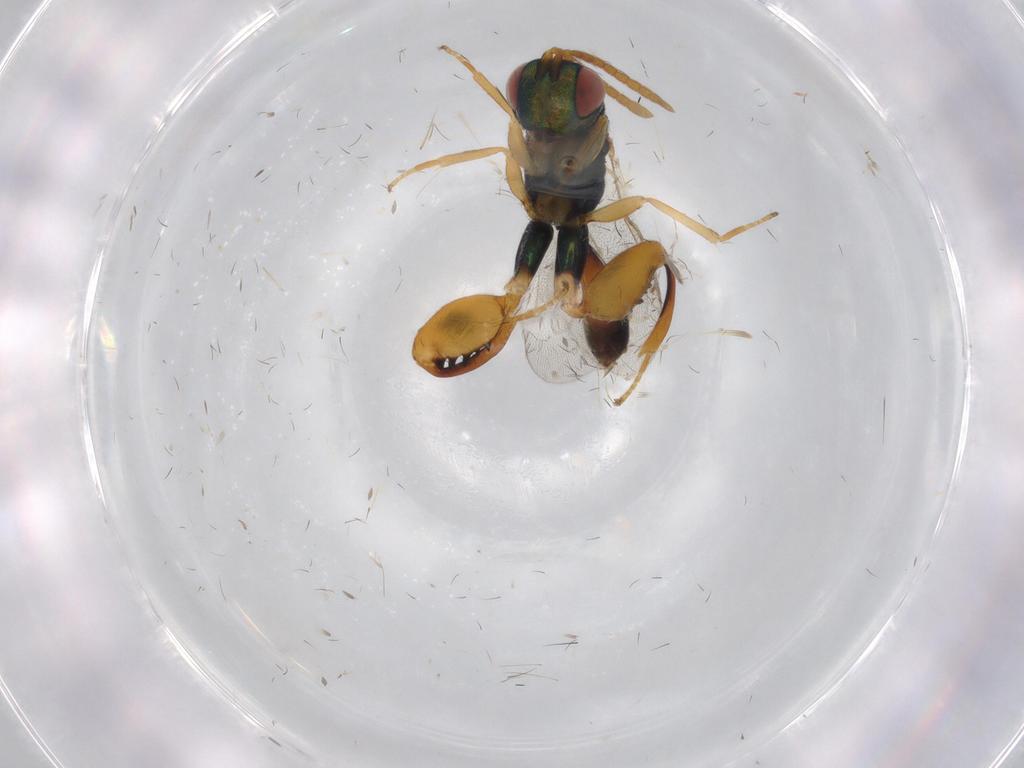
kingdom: Animalia
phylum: Arthropoda
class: Insecta
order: Hymenoptera
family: Torymidae
